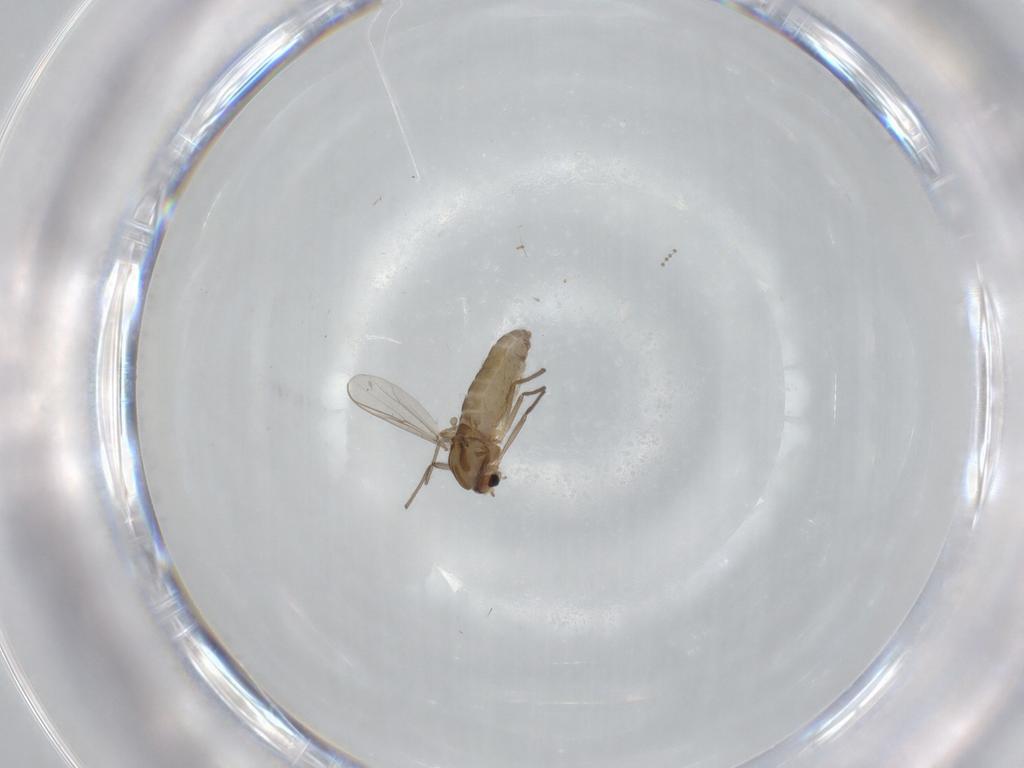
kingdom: Animalia
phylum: Arthropoda
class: Insecta
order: Diptera
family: Chironomidae
